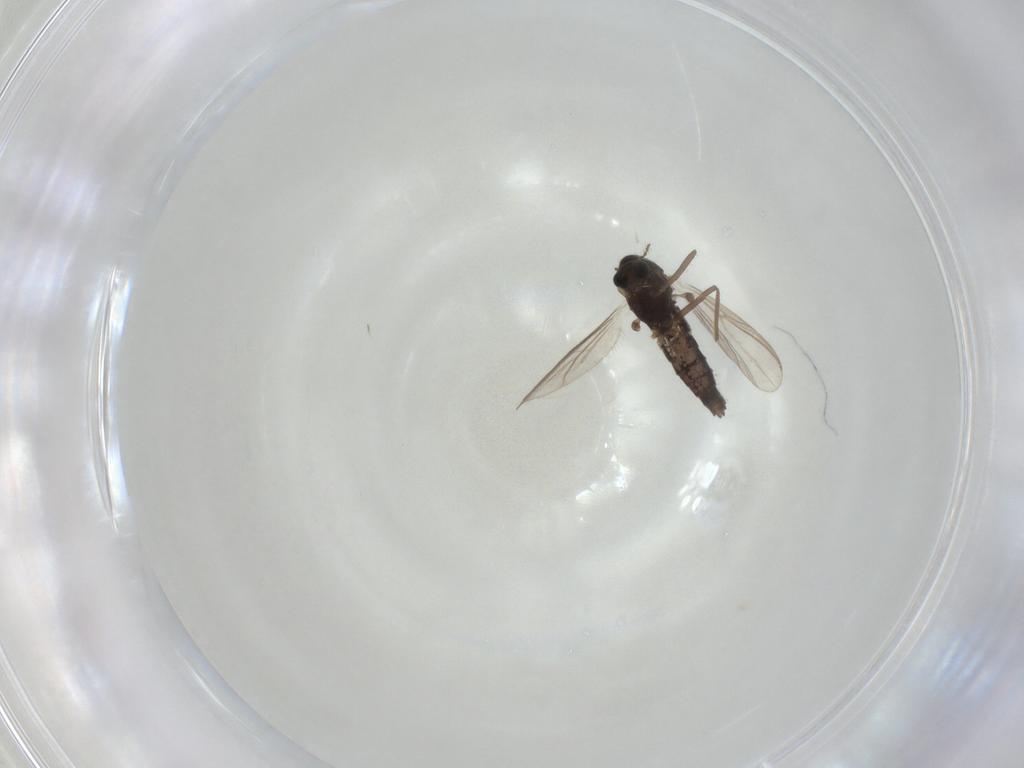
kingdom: Animalia
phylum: Arthropoda
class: Insecta
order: Diptera
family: Chironomidae
